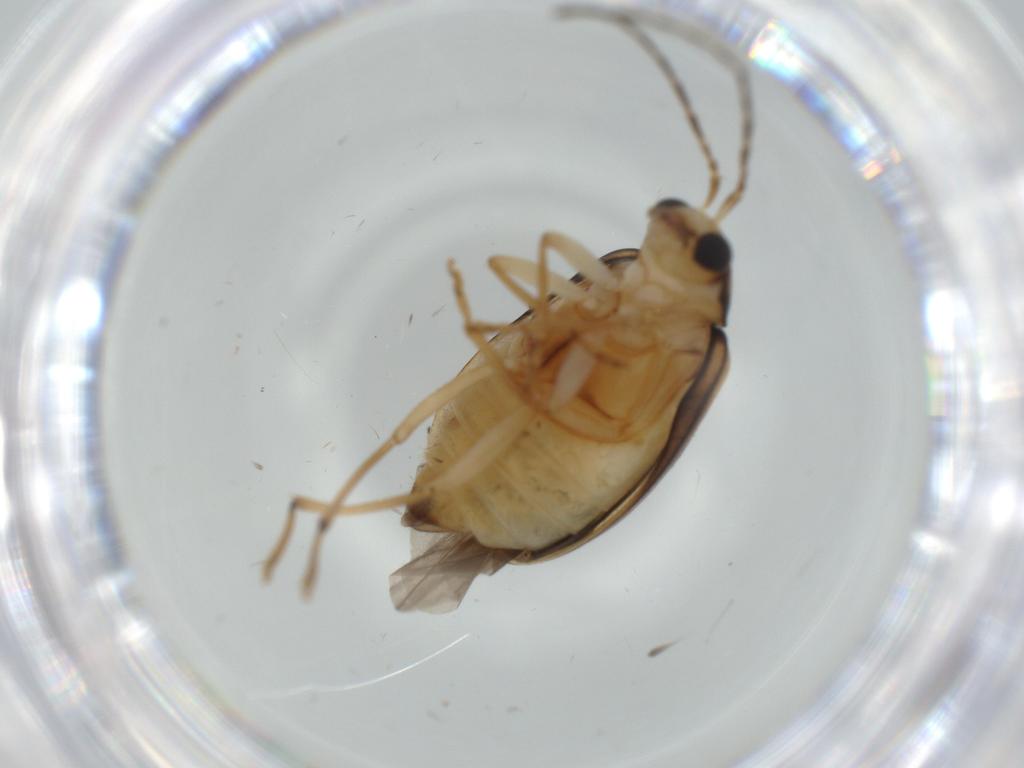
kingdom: Animalia
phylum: Arthropoda
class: Insecta
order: Coleoptera
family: Chrysomelidae
